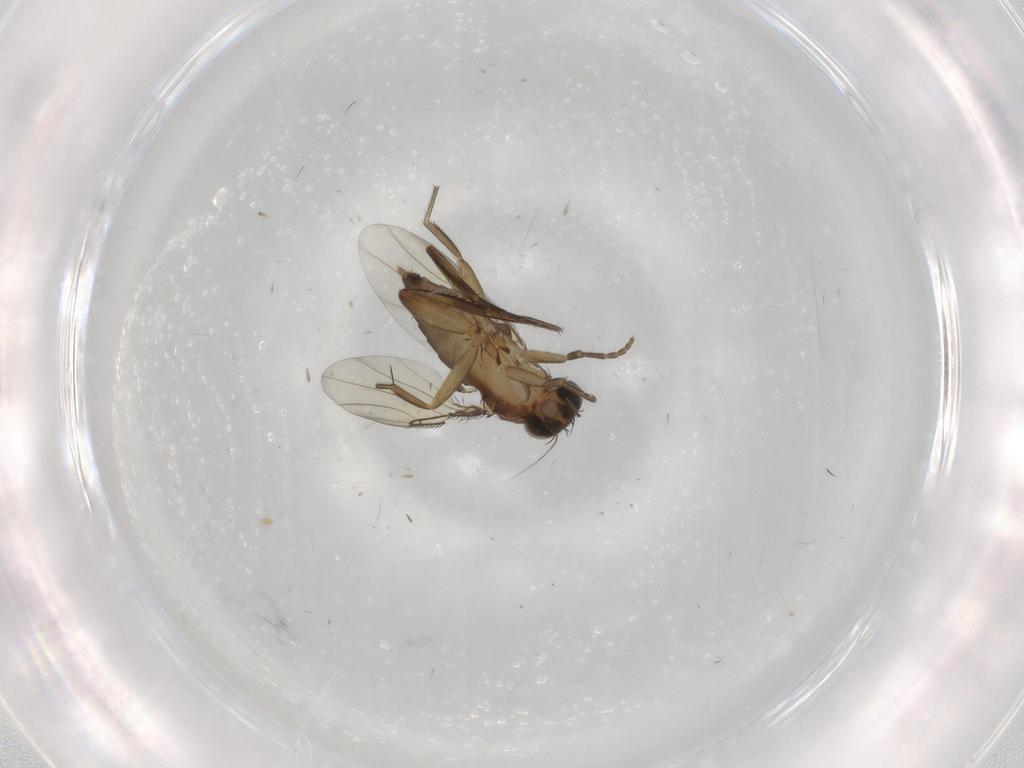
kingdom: Animalia
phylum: Arthropoda
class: Insecta
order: Diptera
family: Phoridae
